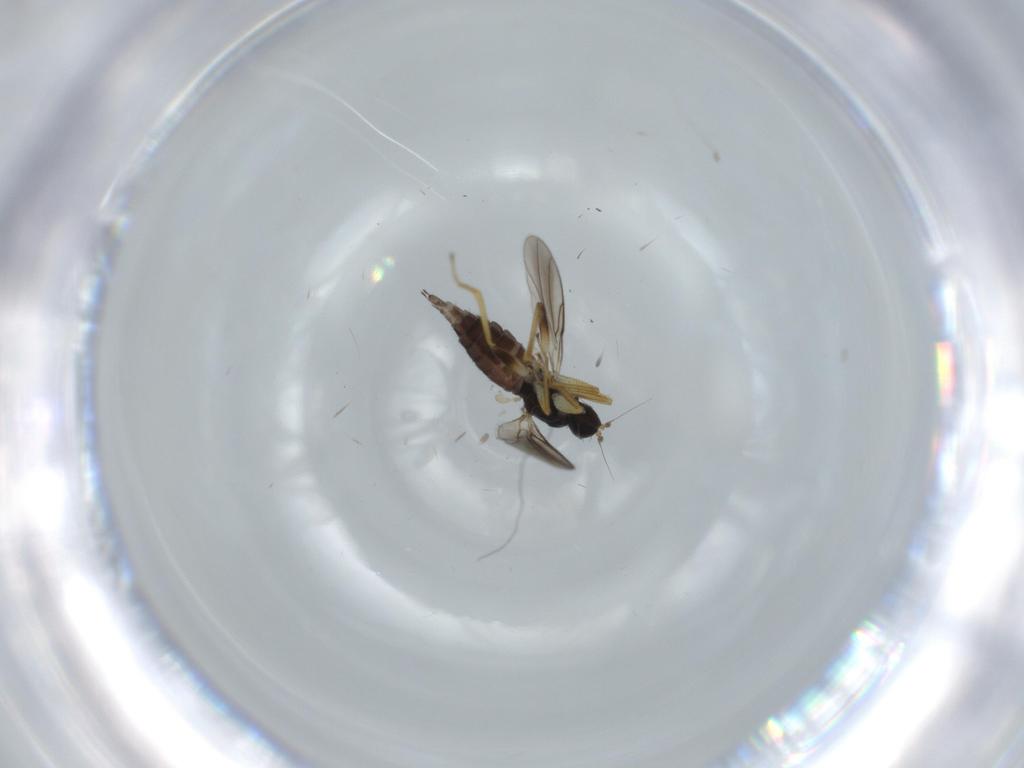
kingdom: Animalia
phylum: Arthropoda
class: Insecta
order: Diptera
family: Hybotidae
